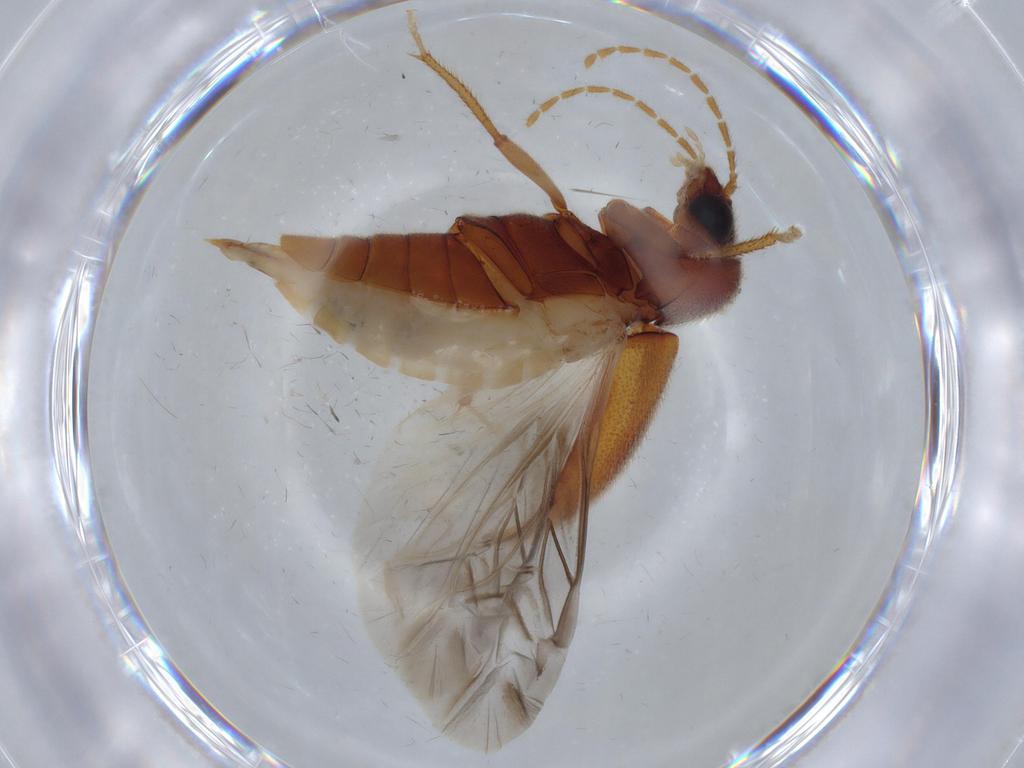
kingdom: Animalia
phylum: Arthropoda
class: Insecta
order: Coleoptera
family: Ptilodactylidae
